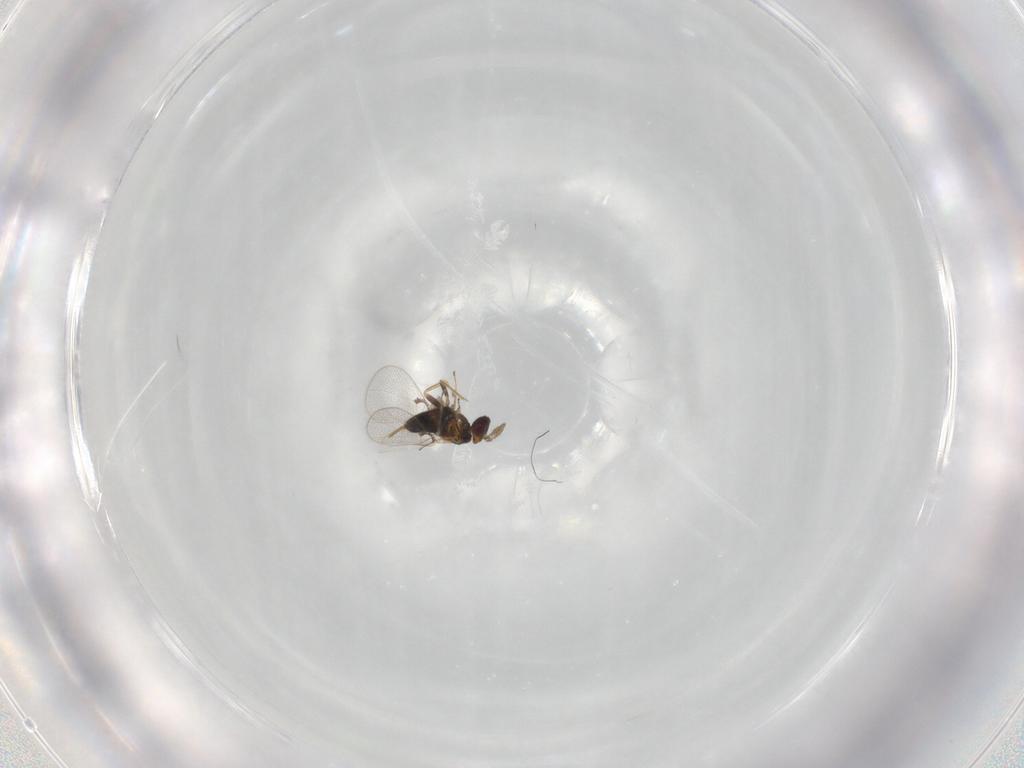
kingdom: Animalia
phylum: Arthropoda
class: Insecta
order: Hymenoptera
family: Trichogrammatidae
